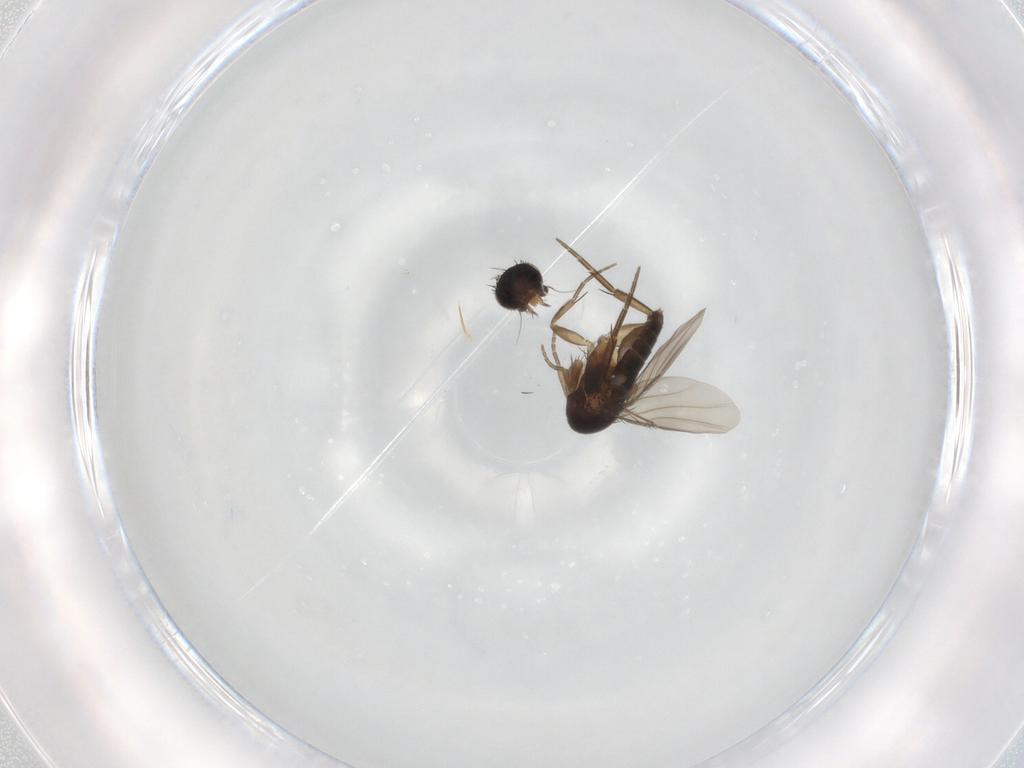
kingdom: Animalia
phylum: Arthropoda
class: Insecta
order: Diptera
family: Phoridae
